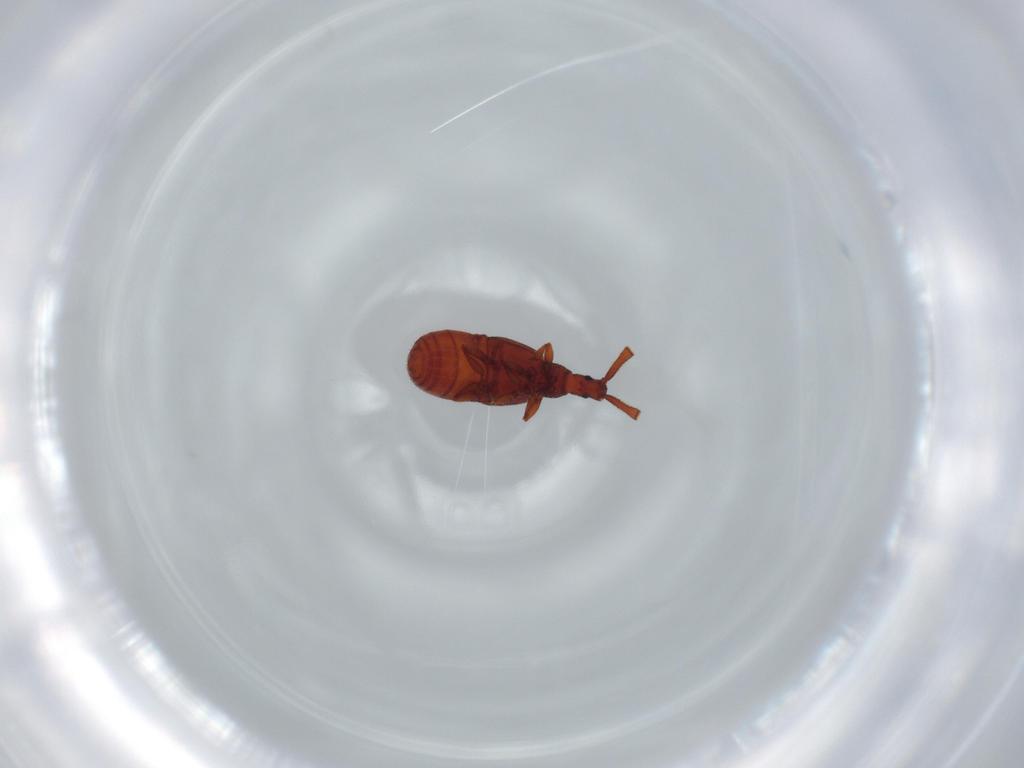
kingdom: Animalia
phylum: Arthropoda
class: Insecta
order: Coleoptera
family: Staphylinidae
